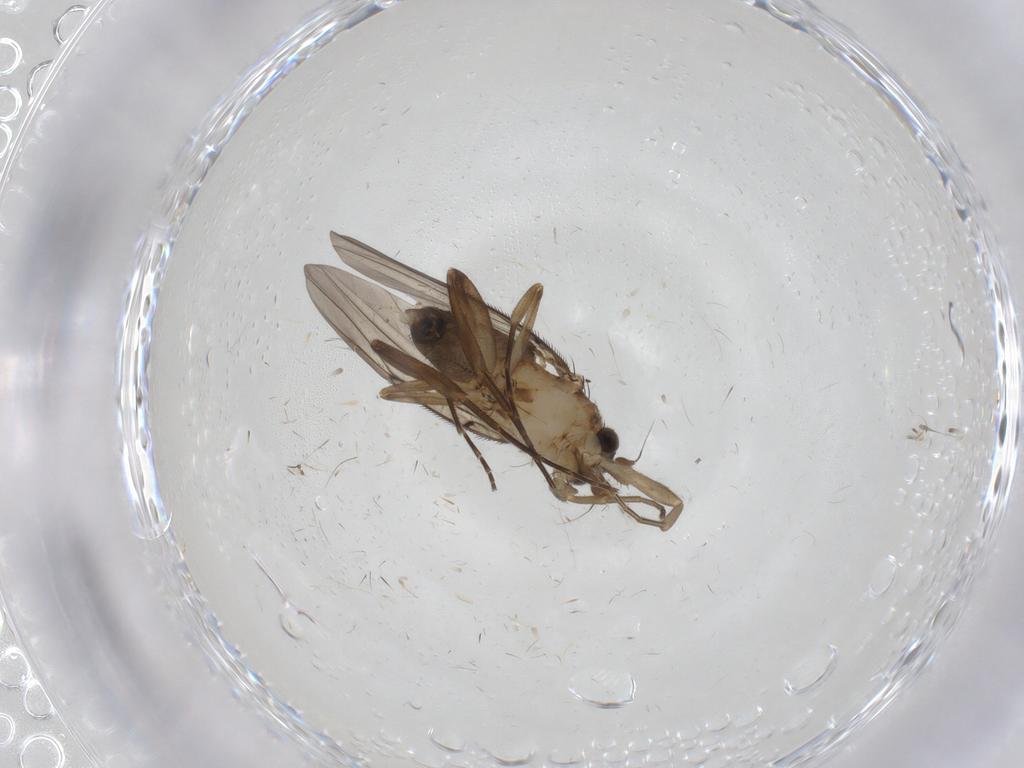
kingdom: Animalia
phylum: Arthropoda
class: Insecta
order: Diptera
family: Phoridae
